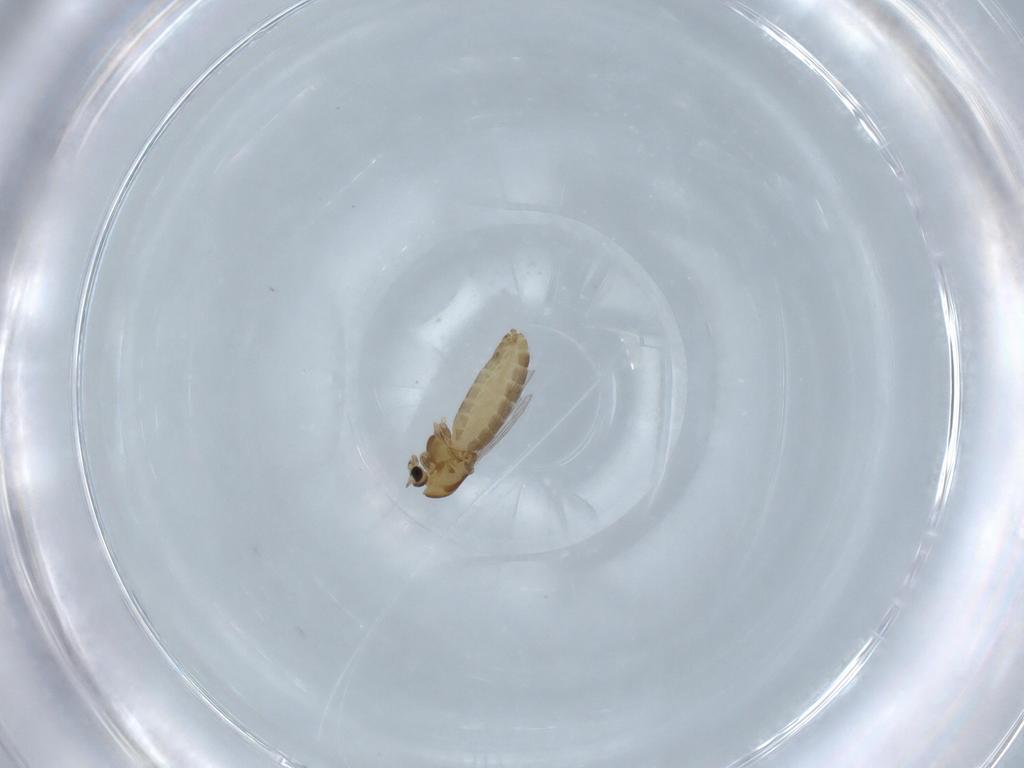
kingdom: Animalia
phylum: Arthropoda
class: Insecta
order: Diptera
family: Chironomidae
